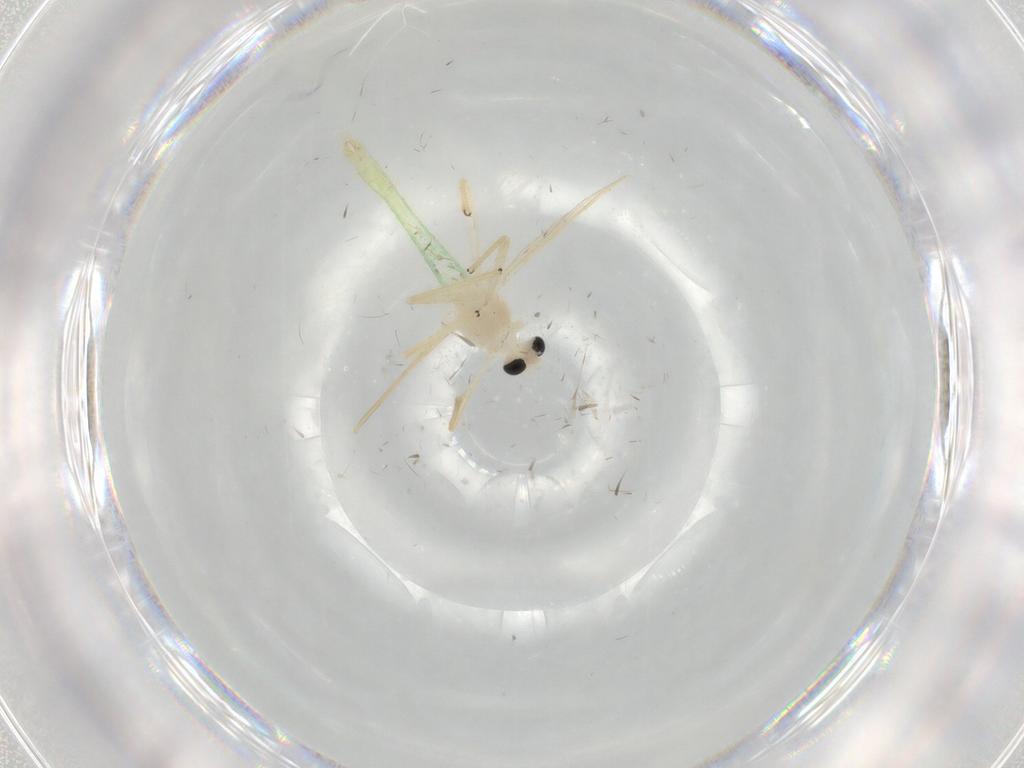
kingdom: Animalia
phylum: Arthropoda
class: Insecta
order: Diptera
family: Chironomidae
